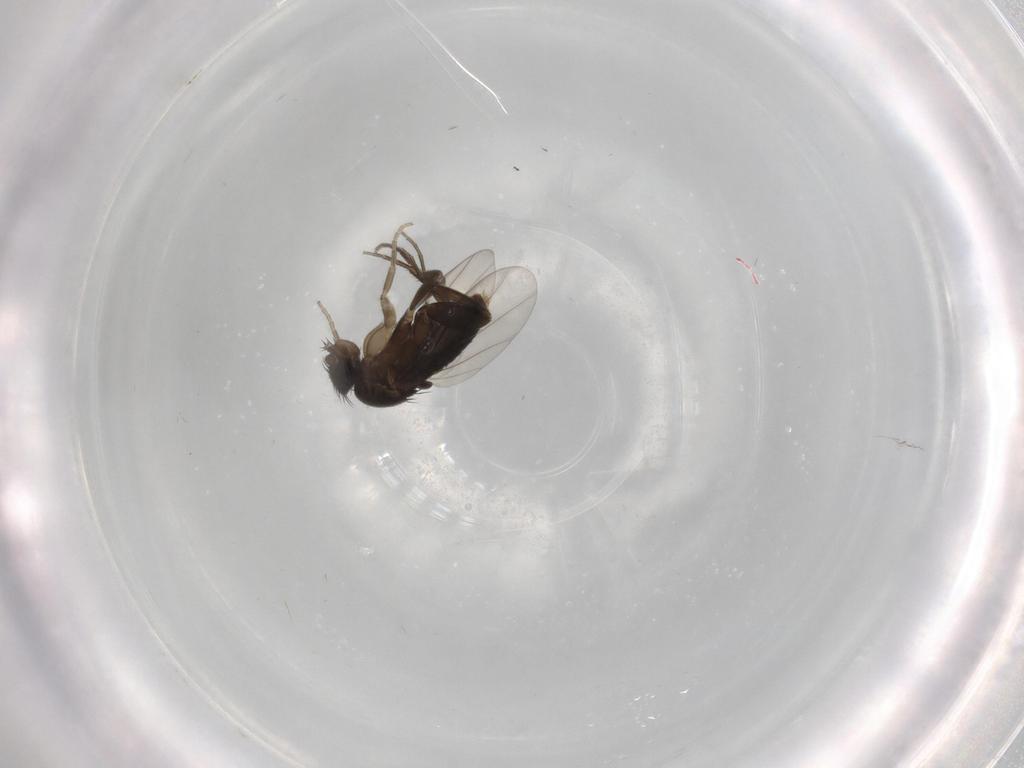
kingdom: Animalia
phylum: Arthropoda
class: Insecta
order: Diptera
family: Phoridae
